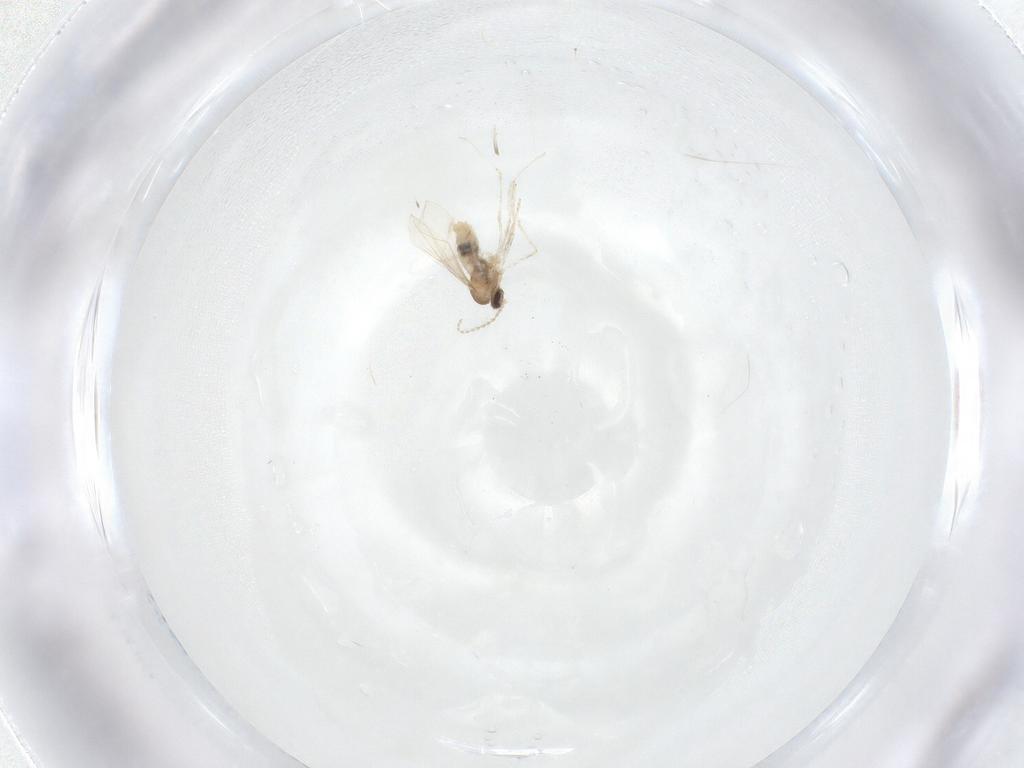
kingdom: Animalia
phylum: Arthropoda
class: Insecta
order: Diptera
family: Cecidomyiidae
